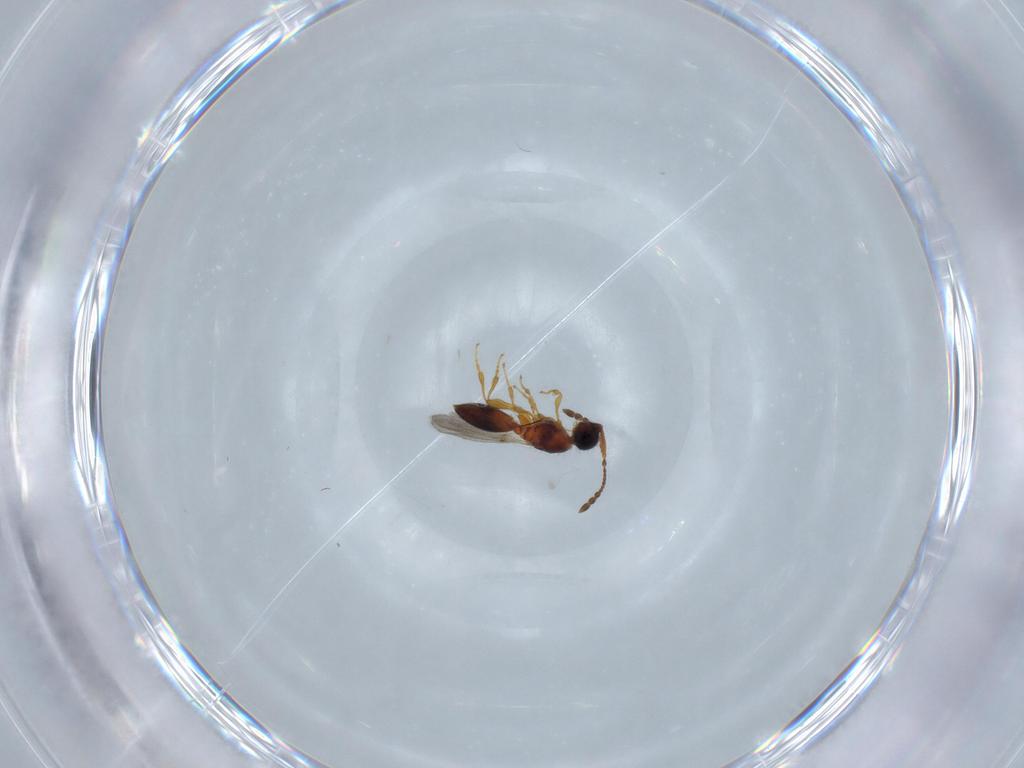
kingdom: Animalia
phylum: Arthropoda
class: Insecta
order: Hymenoptera
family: Diapriidae
